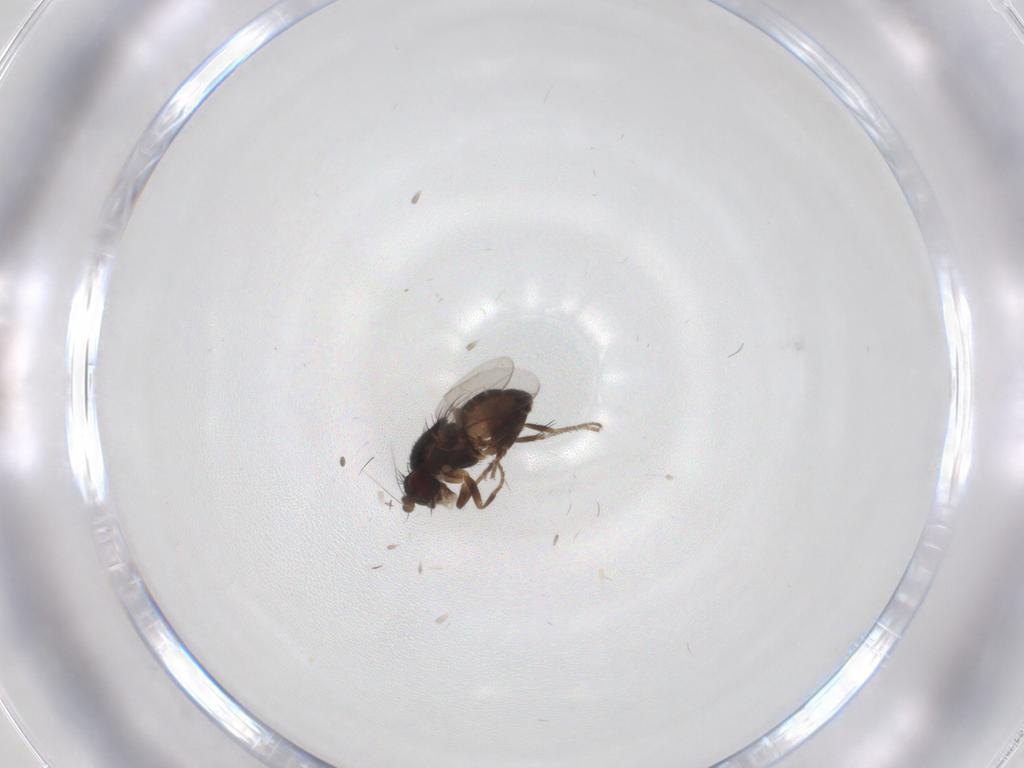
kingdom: Animalia
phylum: Arthropoda
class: Insecta
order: Diptera
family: Sphaeroceridae
